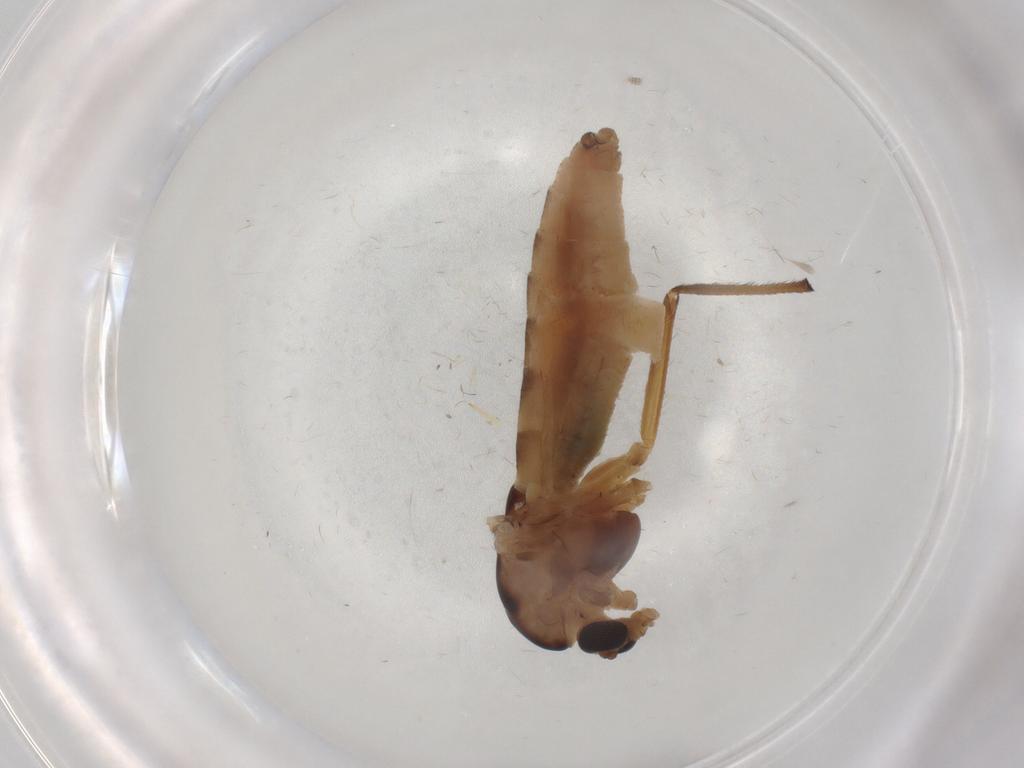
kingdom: Animalia
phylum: Arthropoda
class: Insecta
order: Diptera
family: Chironomidae
